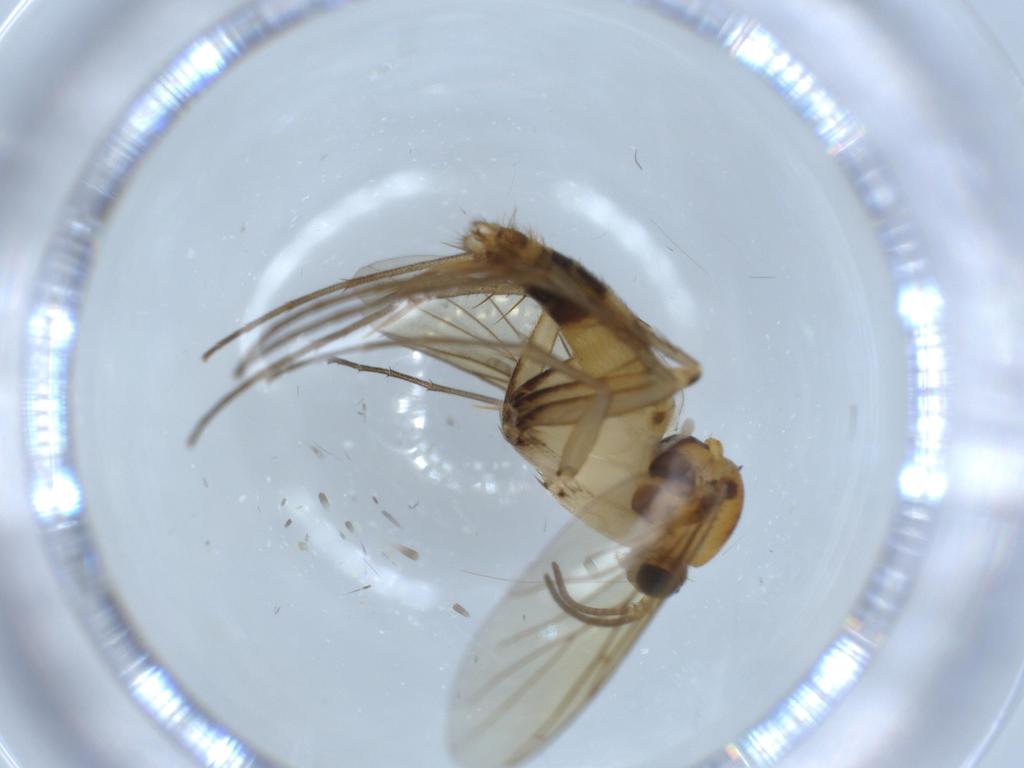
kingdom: Animalia
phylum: Arthropoda
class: Insecta
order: Diptera
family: Mycetophilidae
